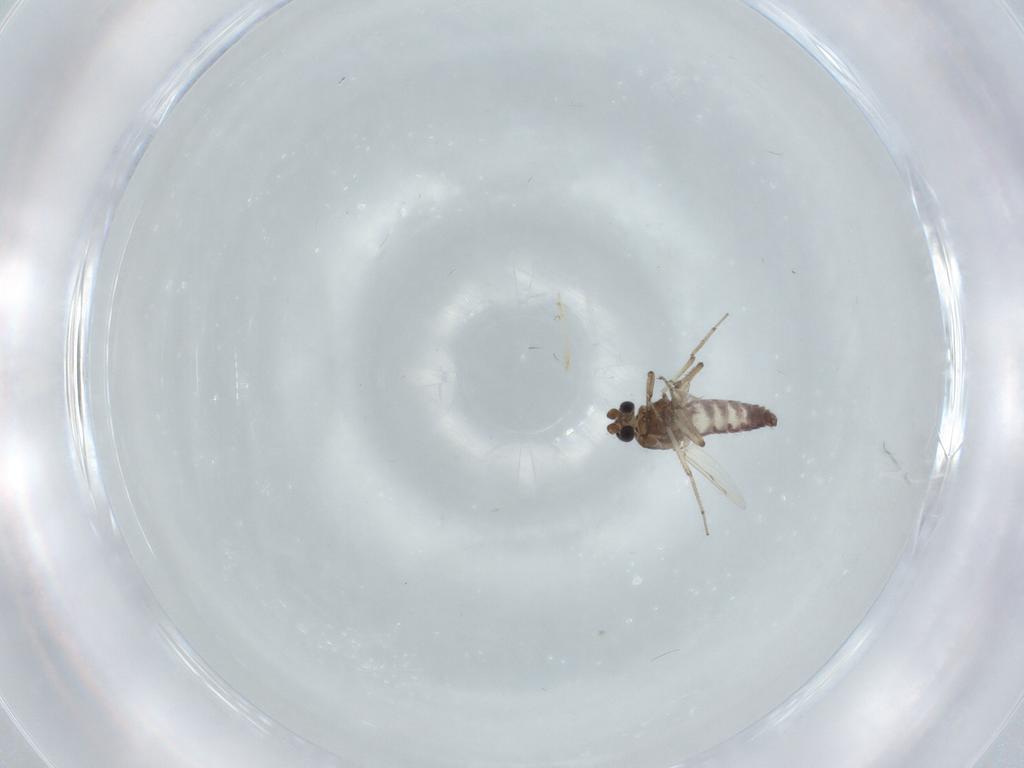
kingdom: Animalia
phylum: Arthropoda
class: Insecta
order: Diptera
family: Ceratopogonidae
